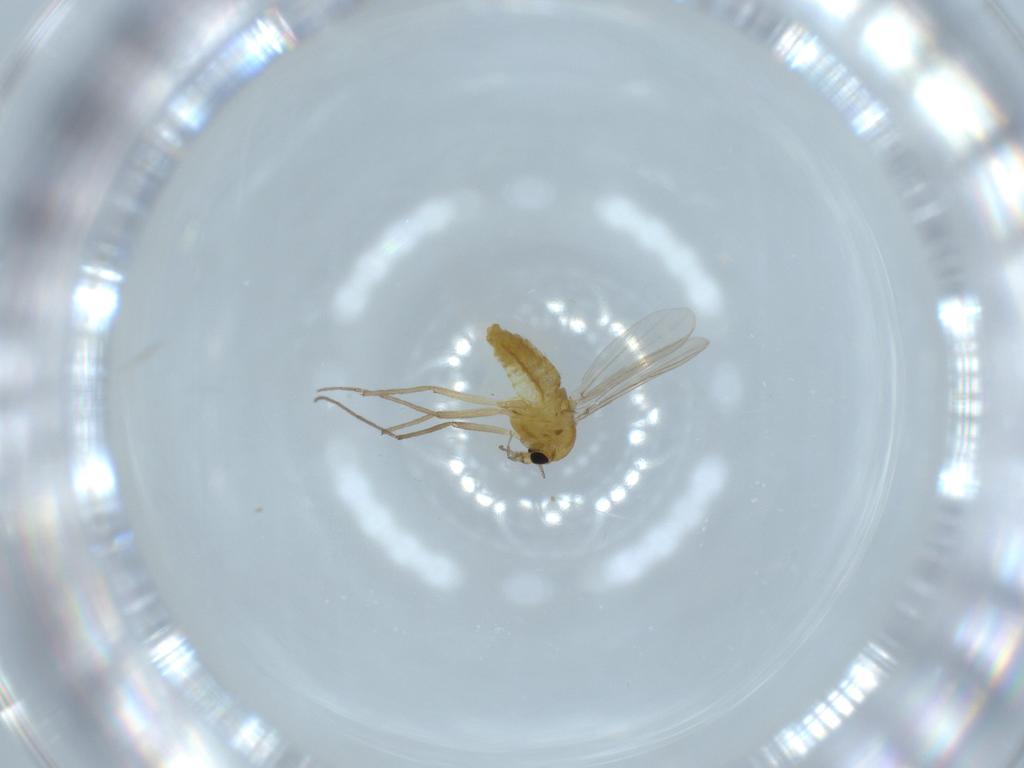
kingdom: Animalia
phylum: Arthropoda
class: Insecta
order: Diptera
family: Chironomidae
